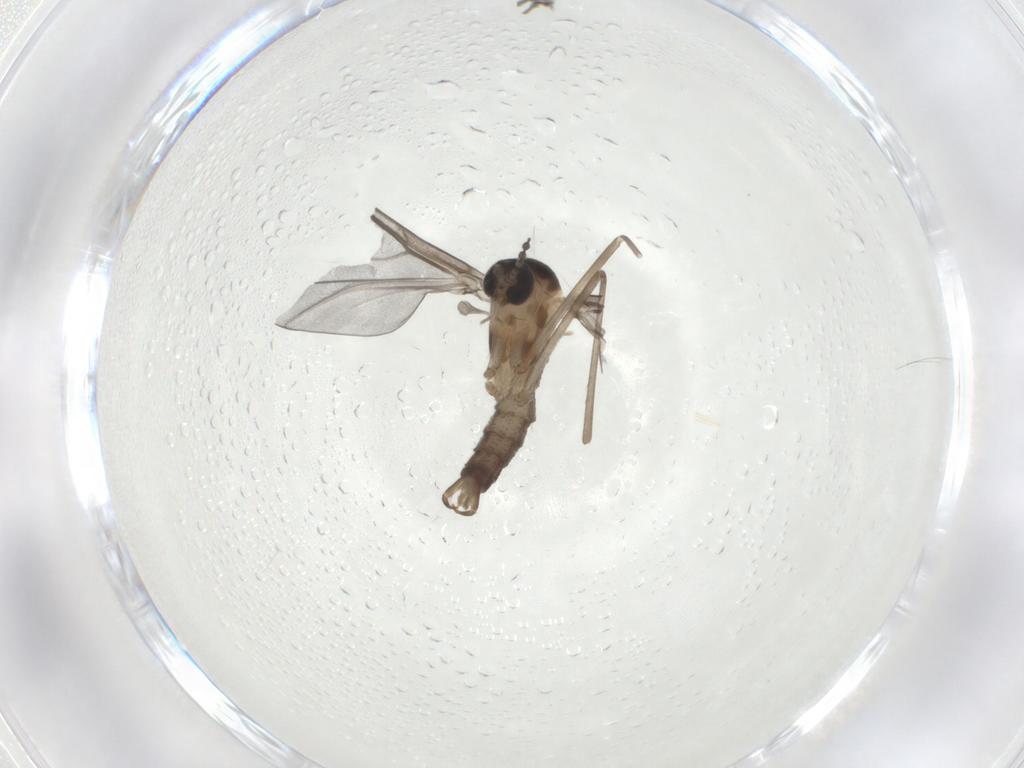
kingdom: Animalia
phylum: Arthropoda
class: Insecta
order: Diptera
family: Cecidomyiidae
